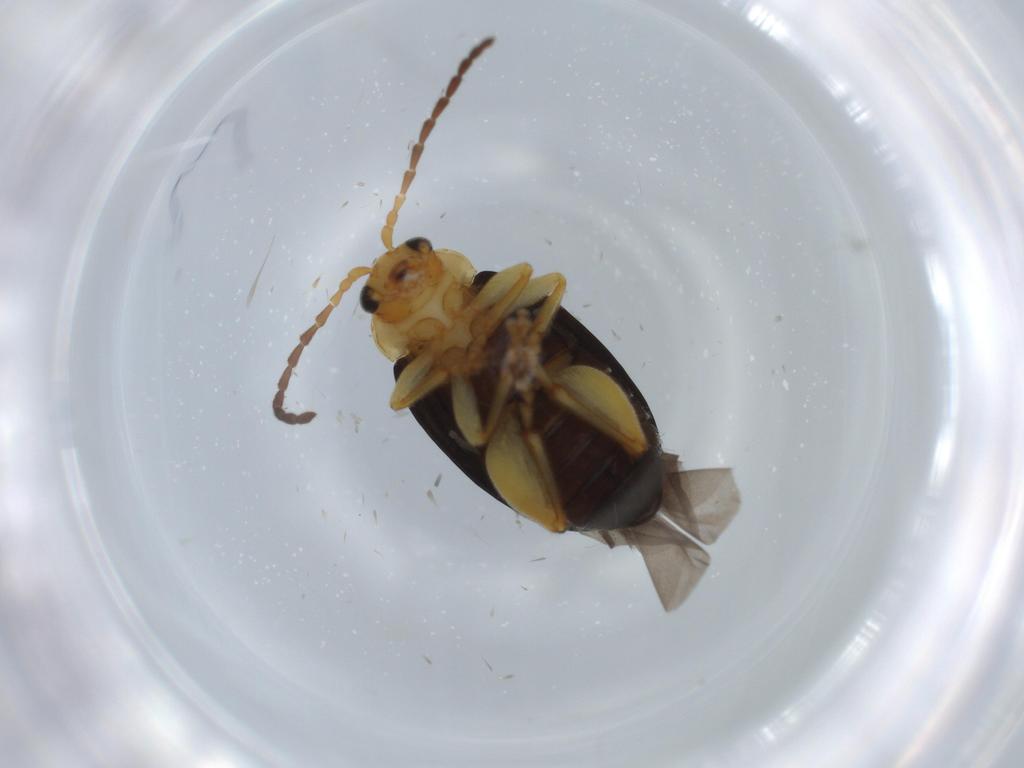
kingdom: Animalia
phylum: Arthropoda
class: Insecta
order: Coleoptera
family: Chrysomelidae
